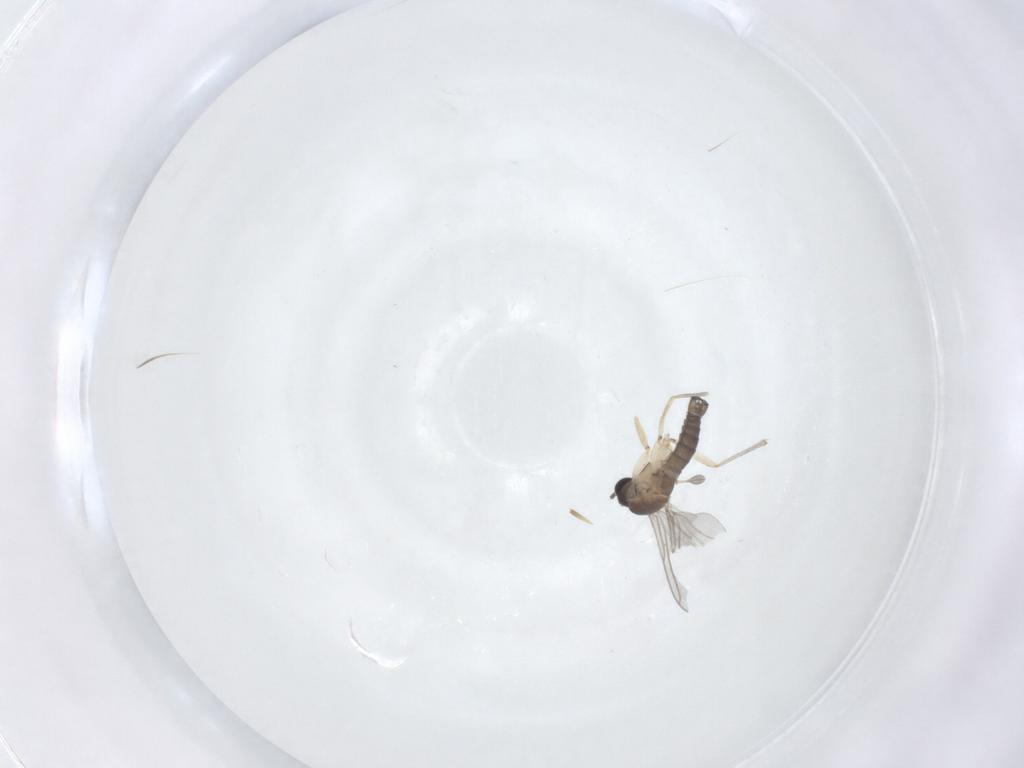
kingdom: Animalia
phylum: Arthropoda
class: Insecta
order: Diptera
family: Sciaridae
